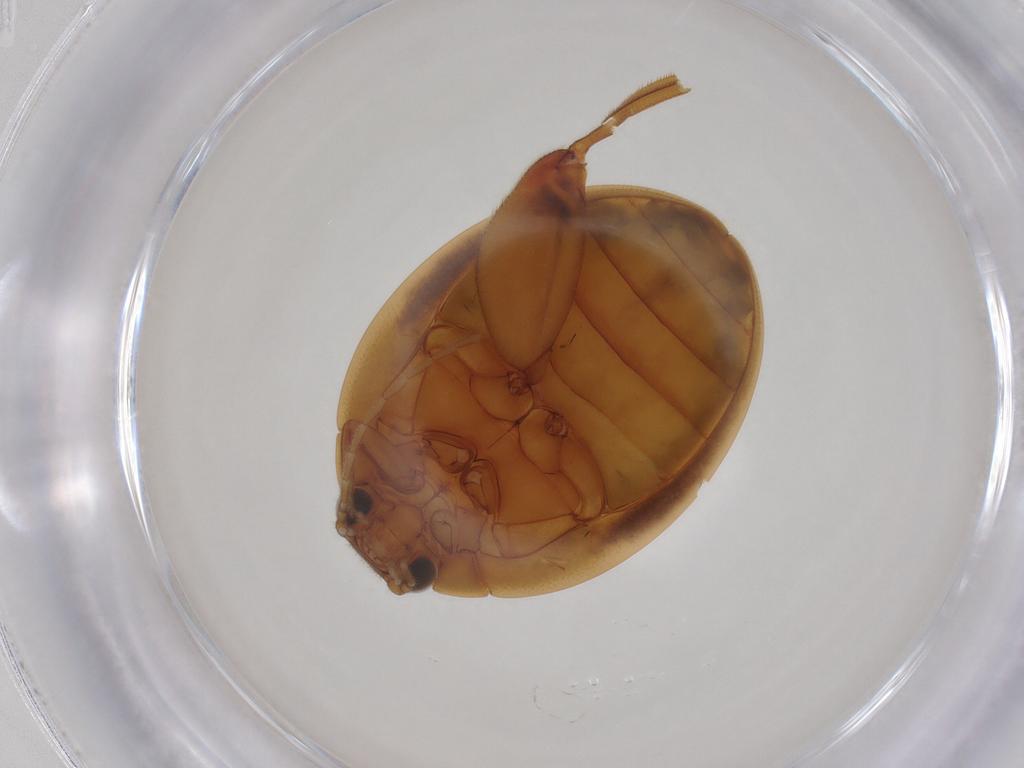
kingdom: Animalia
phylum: Arthropoda
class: Insecta
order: Coleoptera
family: Scirtidae
